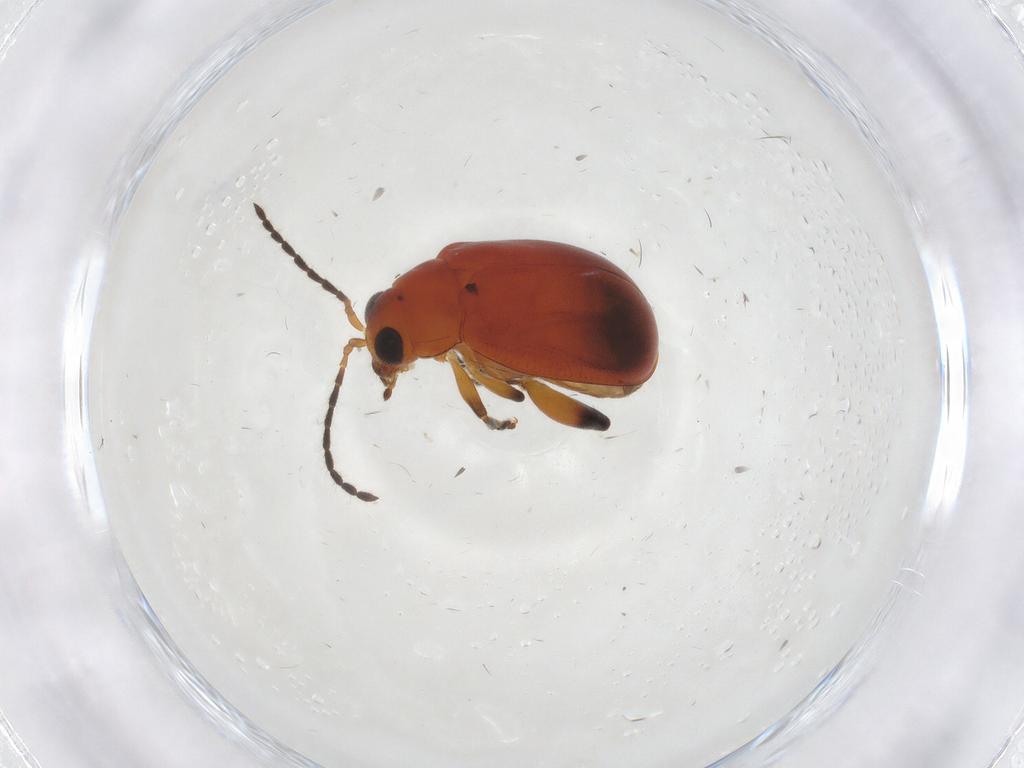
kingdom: Animalia
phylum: Arthropoda
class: Insecta
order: Coleoptera
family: Chrysomelidae
